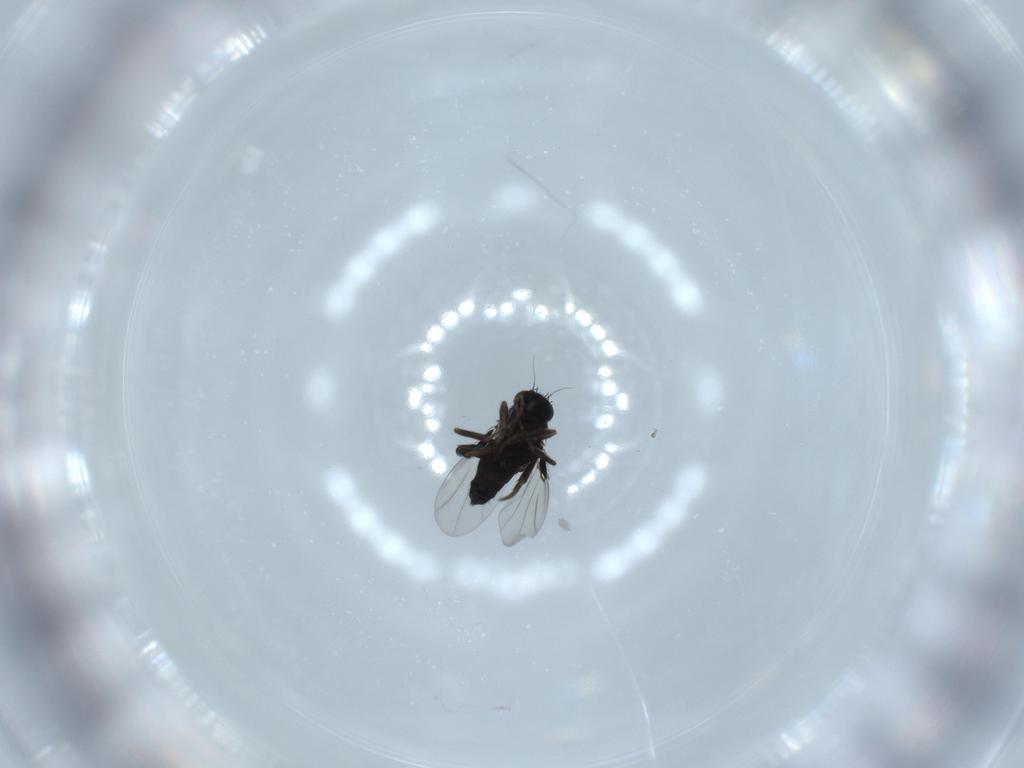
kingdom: Animalia
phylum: Arthropoda
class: Insecta
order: Diptera
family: Phoridae
